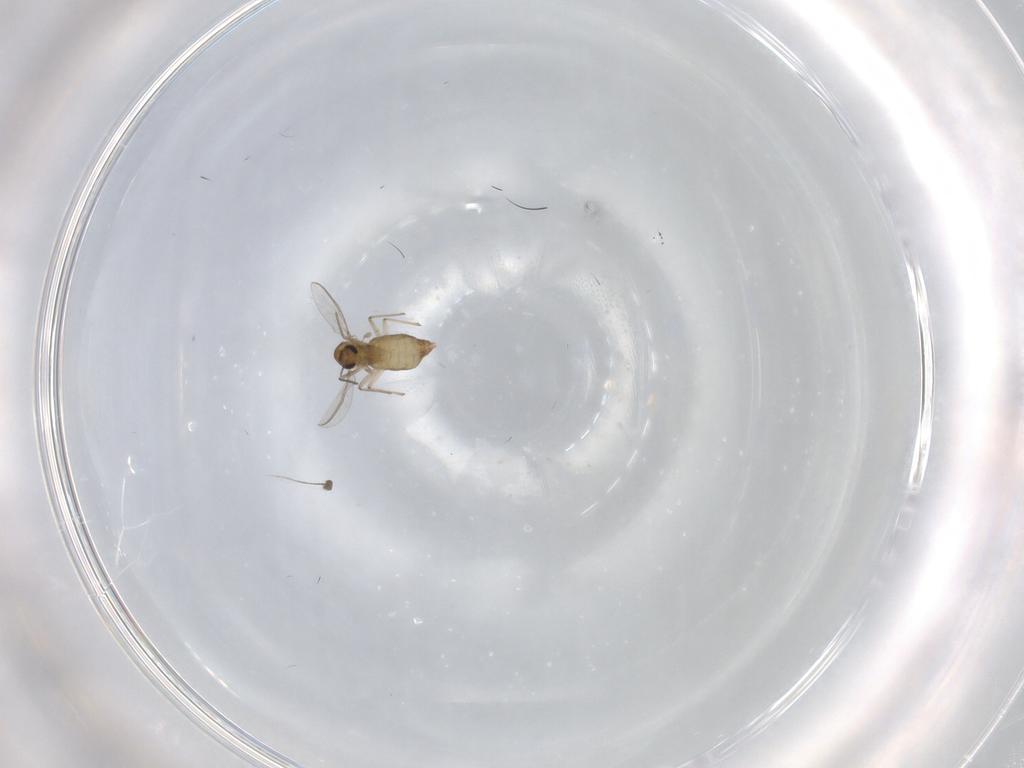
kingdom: Animalia
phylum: Arthropoda
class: Insecta
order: Diptera
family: Chironomidae
